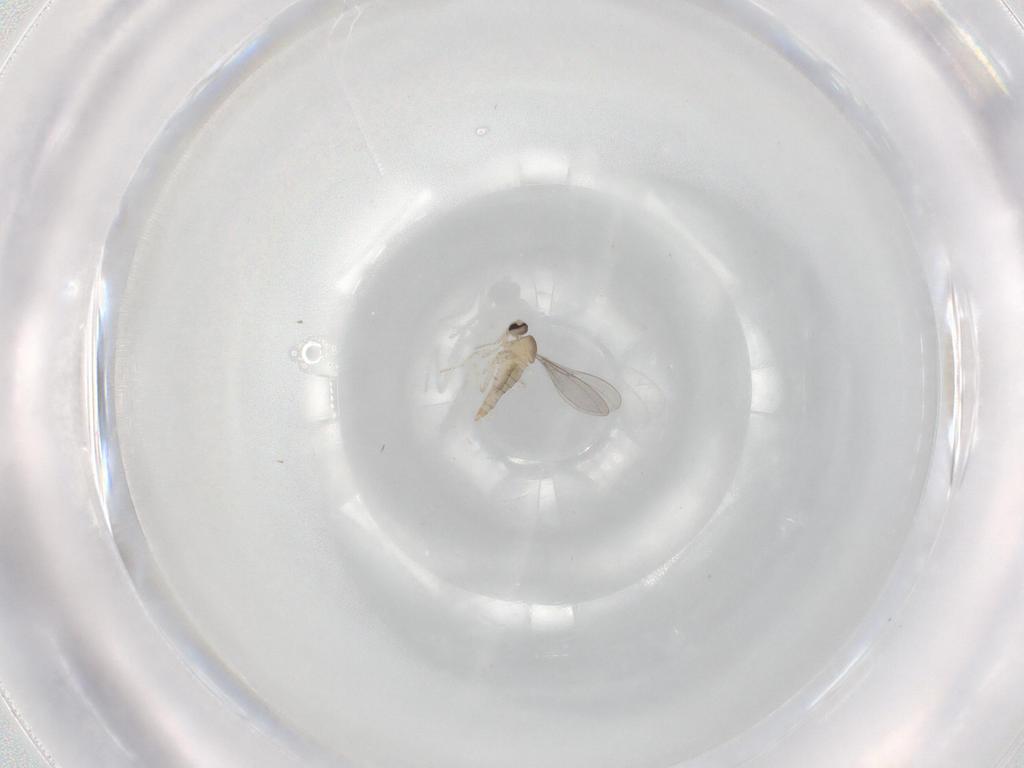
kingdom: Animalia
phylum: Arthropoda
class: Insecta
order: Diptera
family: Cecidomyiidae
